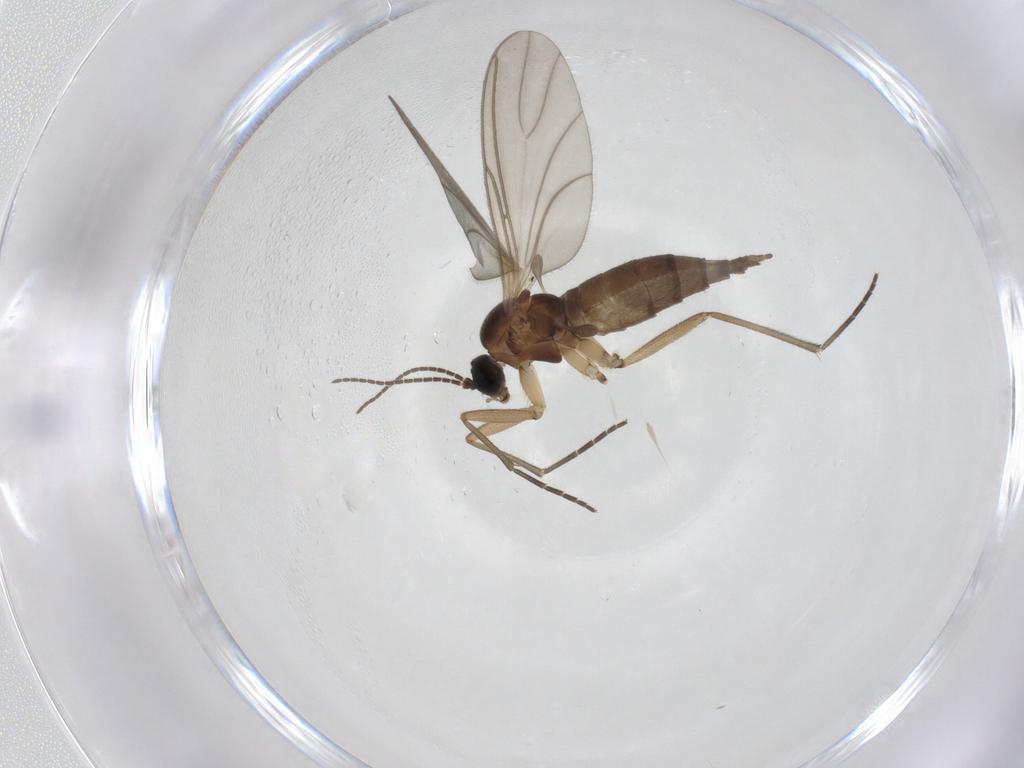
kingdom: Animalia
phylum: Arthropoda
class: Insecta
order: Diptera
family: Sciaridae
